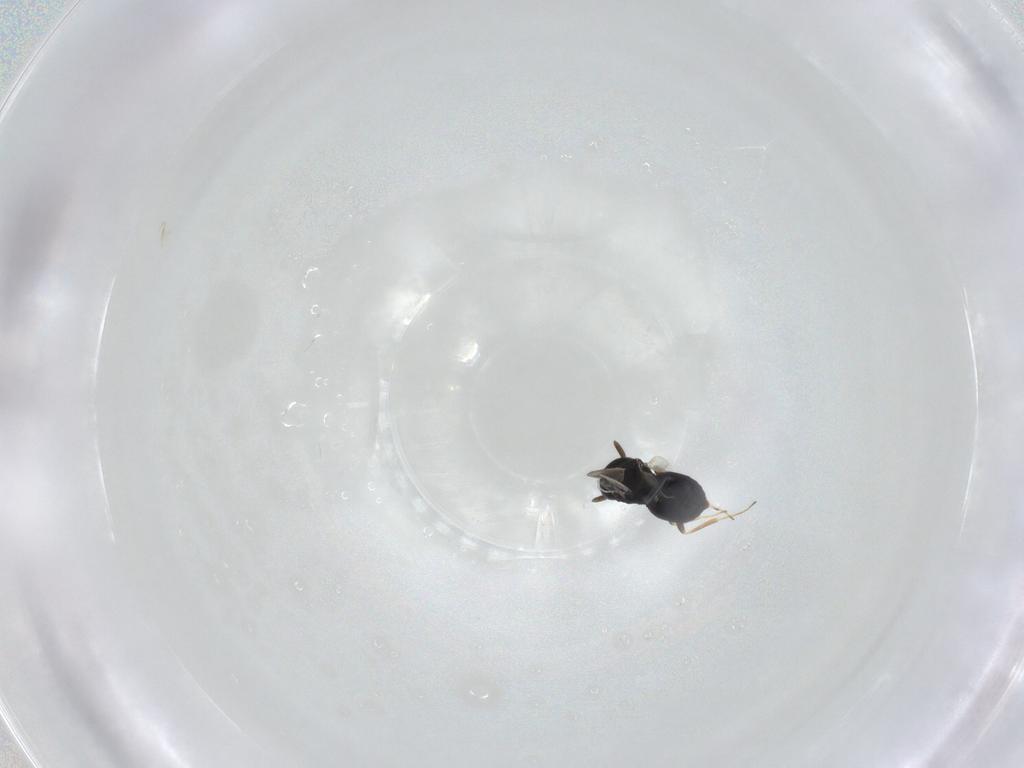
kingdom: Animalia
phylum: Arthropoda
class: Insecta
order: Hymenoptera
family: Scelionidae
